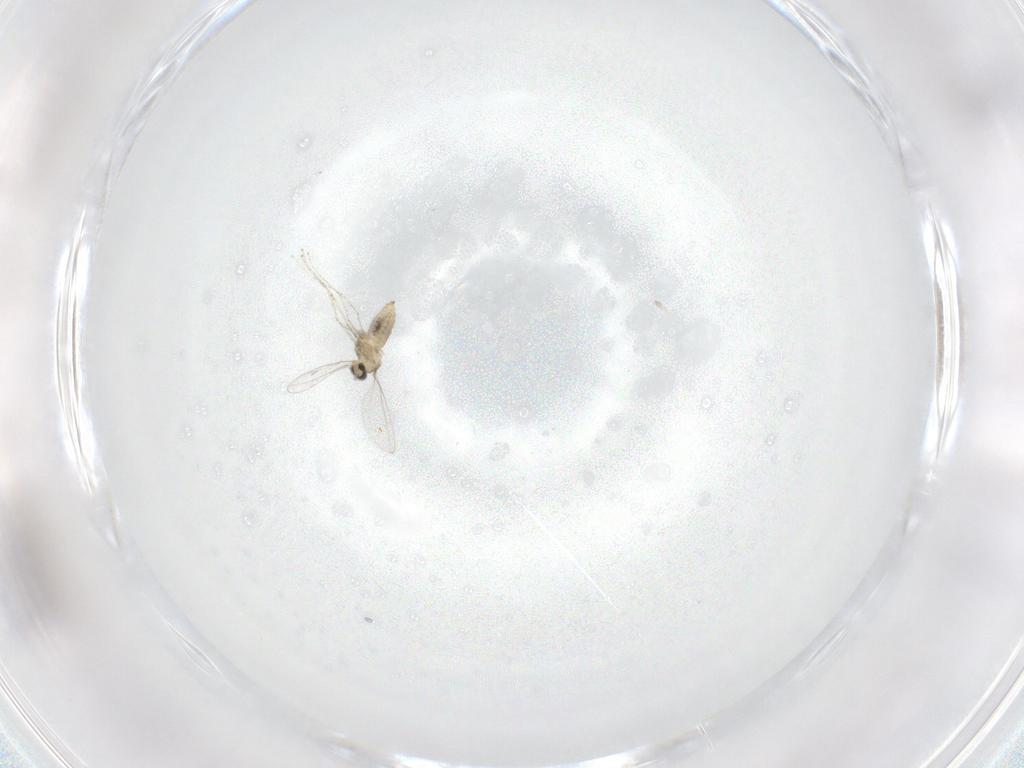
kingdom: Animalia
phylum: Arthropoda
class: Insecta
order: Diptera
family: Cecidomyiidae
